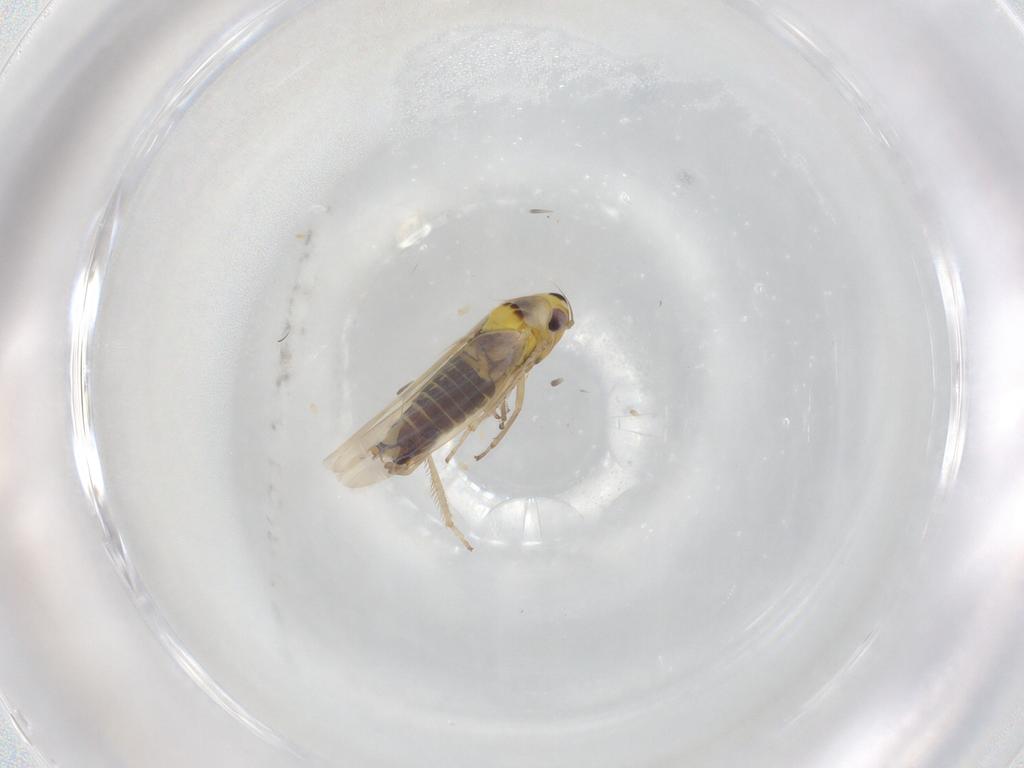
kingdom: Animalia
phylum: Arthropoda
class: Insecta
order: Hemiptera
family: Cicadellidae
